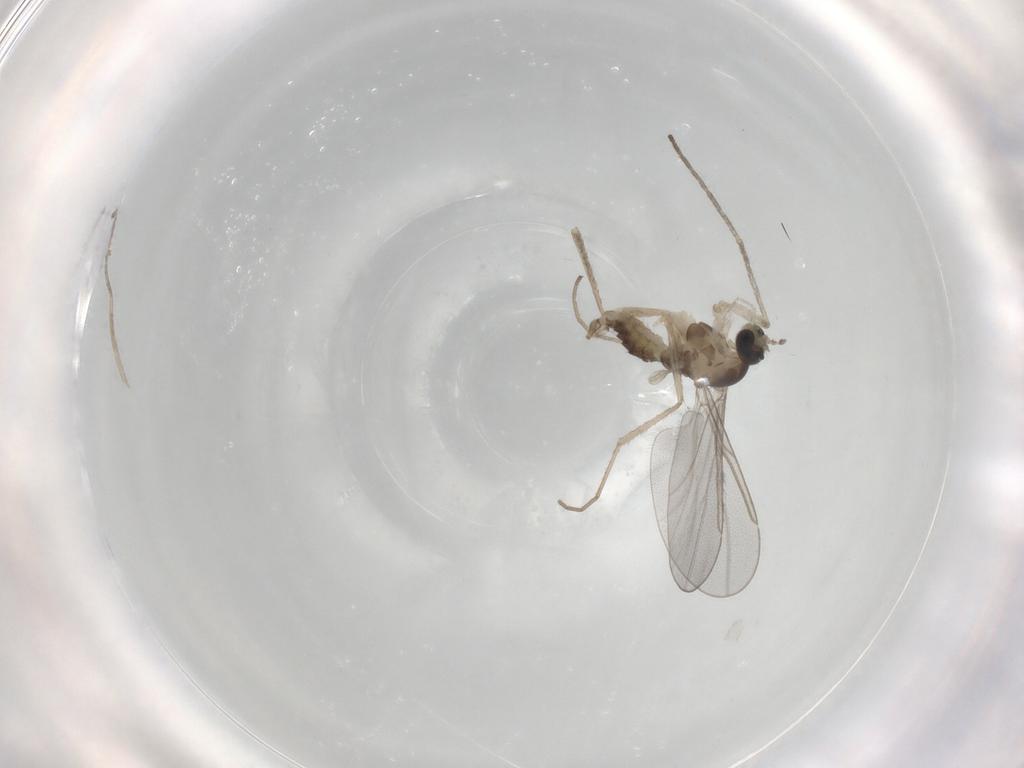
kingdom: Animalia
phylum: Arthropoda
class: Insecta
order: Diptera
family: Cecidomyiidae
